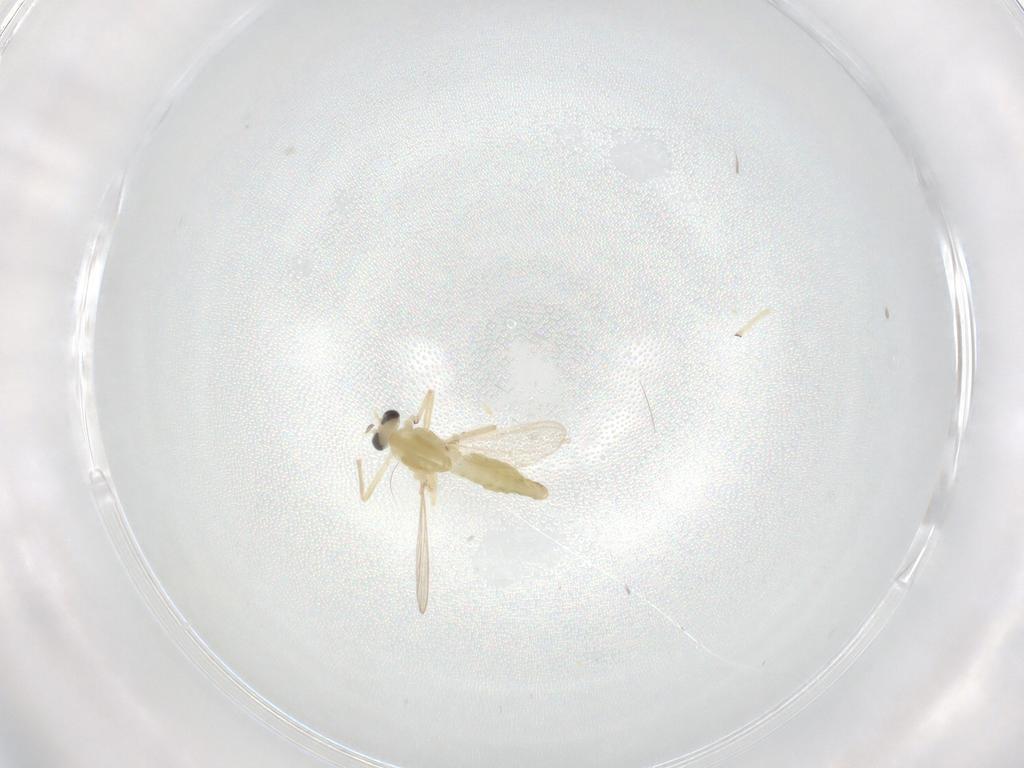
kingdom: Animalia
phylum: Arthropoda
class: Insecta
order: Diptera
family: Chironomidae
